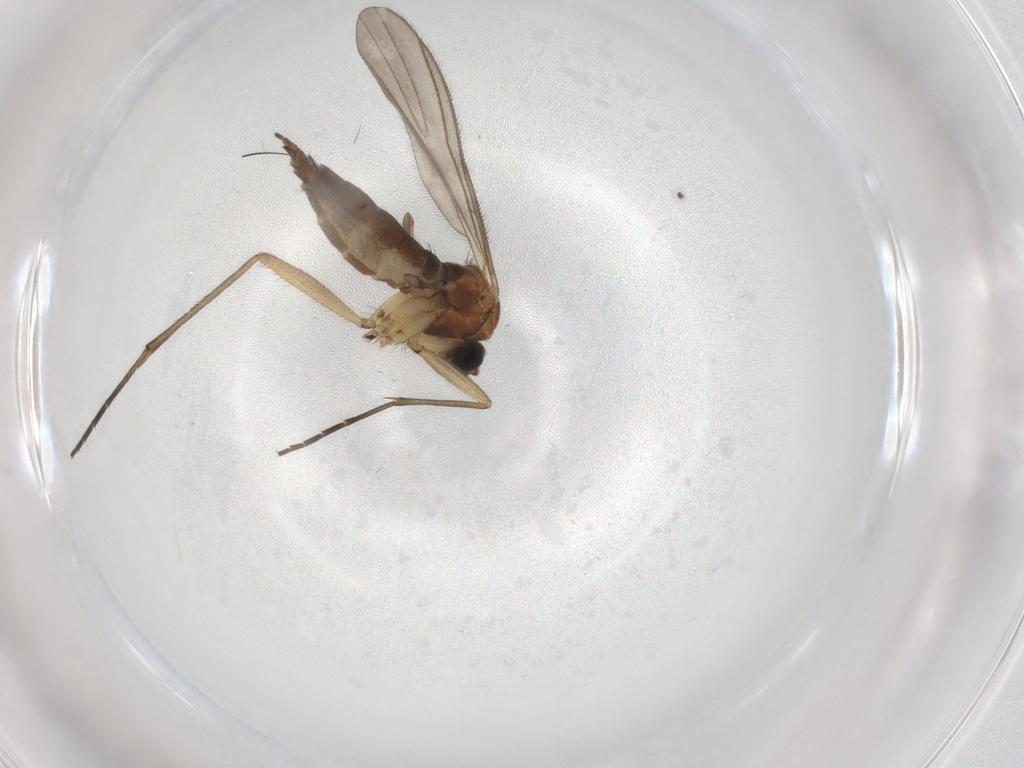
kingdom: Animalia
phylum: Arthropoda
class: Insecta
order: Diptera
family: Sciaridae
